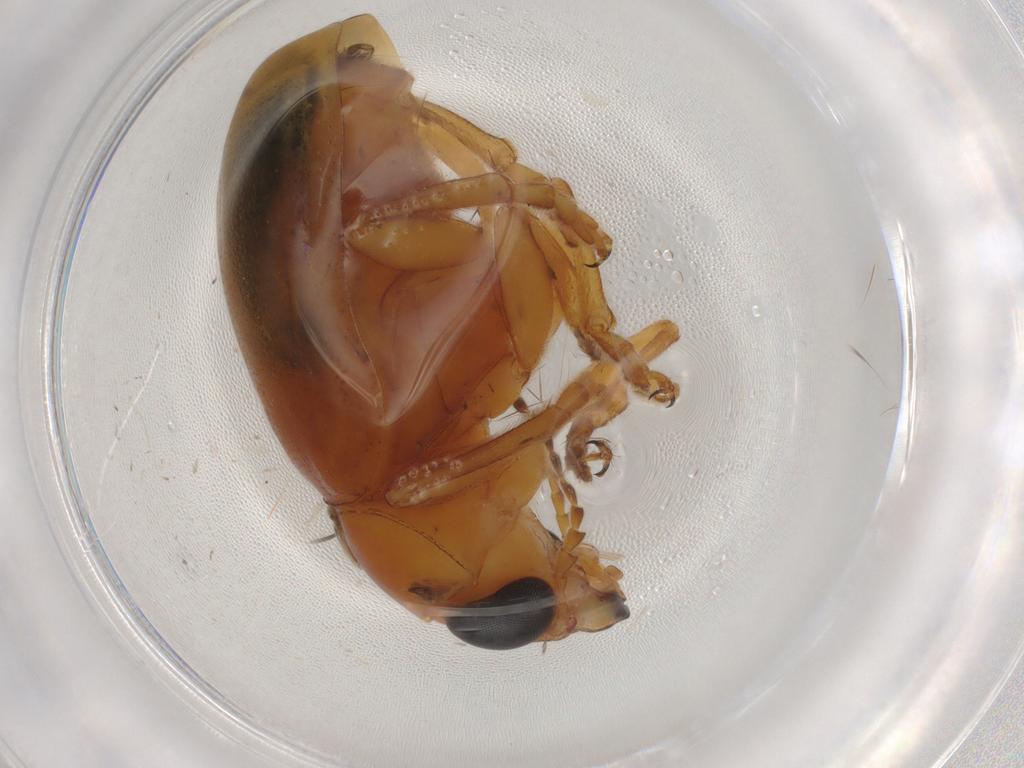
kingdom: Animalia
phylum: Arthropoda
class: Insecta
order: Coleoptera
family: Chrysomelidae
